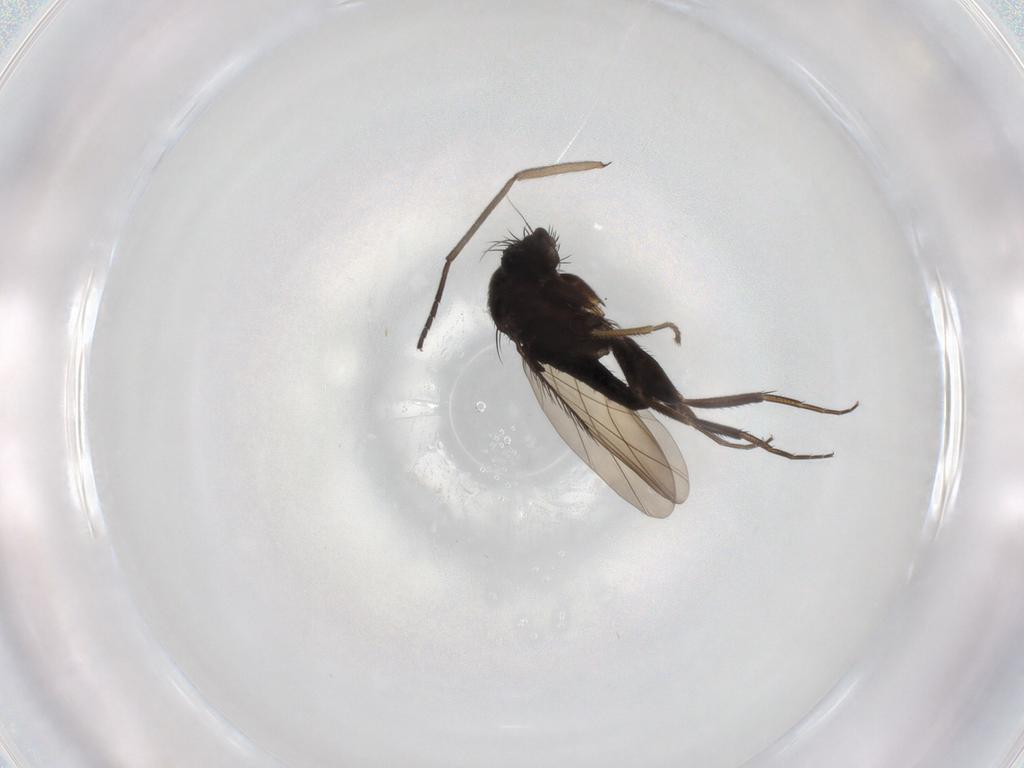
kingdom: Animalia
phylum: Arthropoda
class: Insecta
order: Diptera
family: Phoridae
